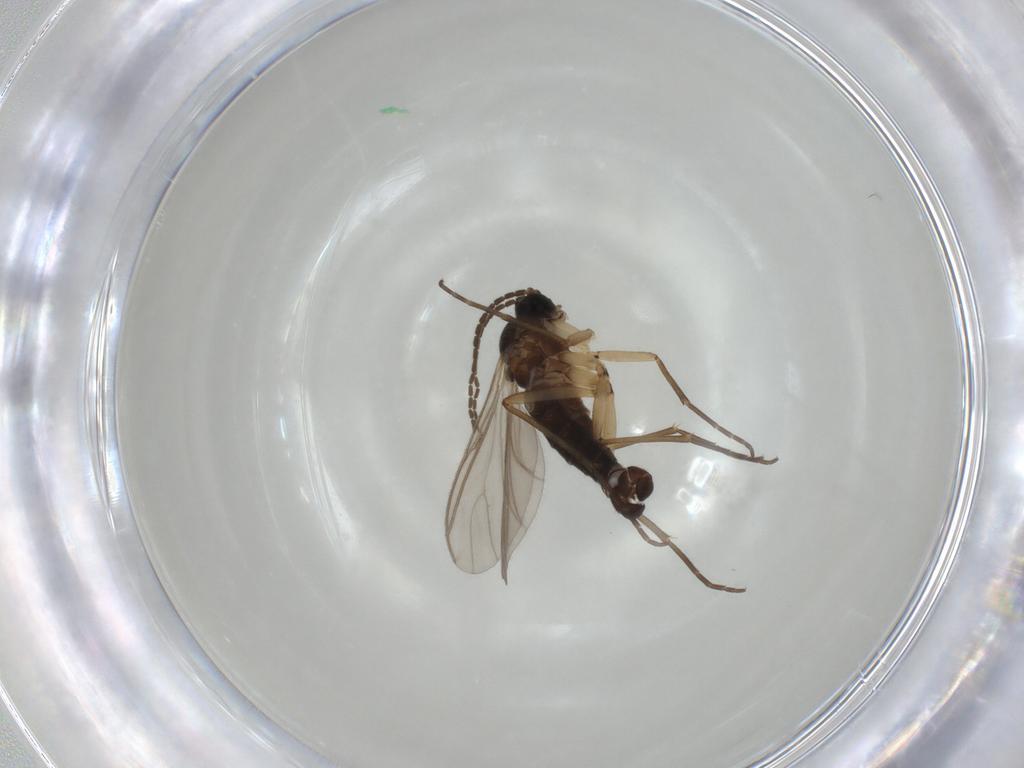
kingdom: Animalia
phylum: Arthropoda
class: Insecta
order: Diptera
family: Sciaridae
